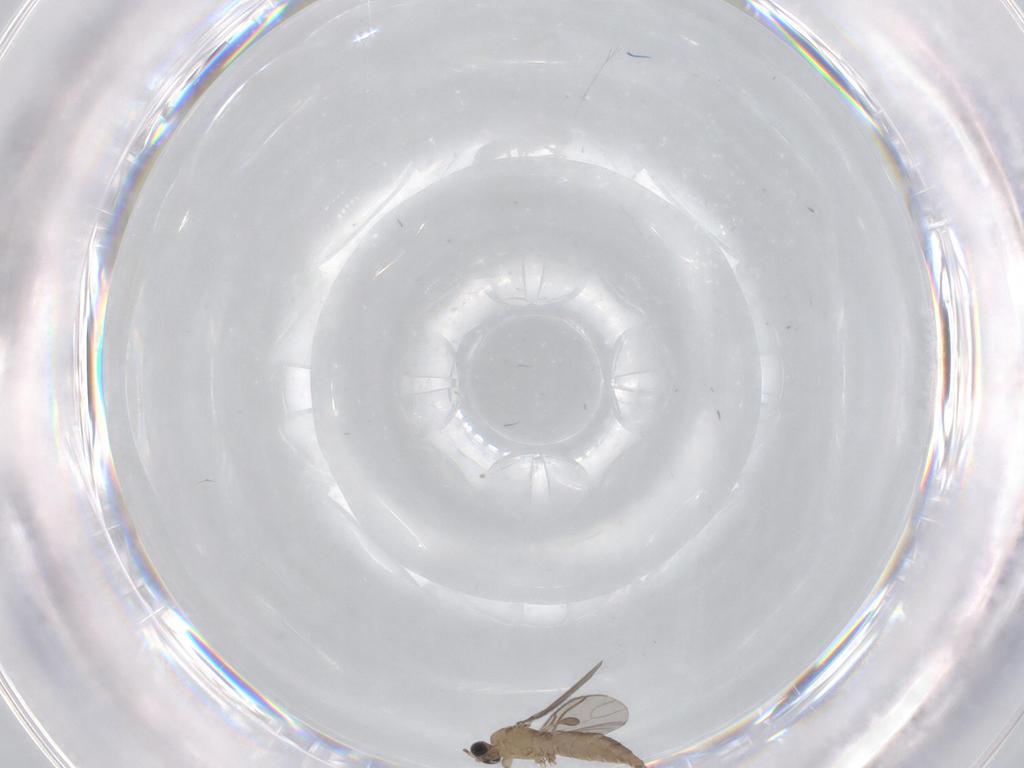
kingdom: Animalia
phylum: Arthropoda
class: Insecta
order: Diptera
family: Sciaridae
